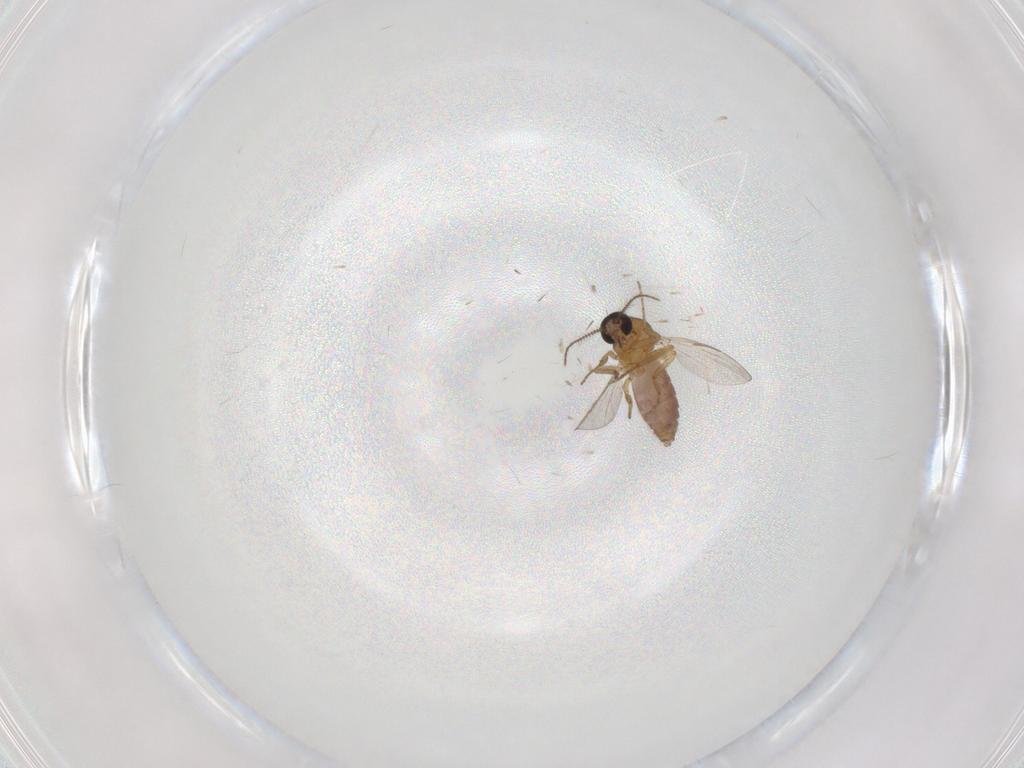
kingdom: Animalia
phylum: Arthropoda
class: Insecta
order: Diptera
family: Ceratopogonidae
